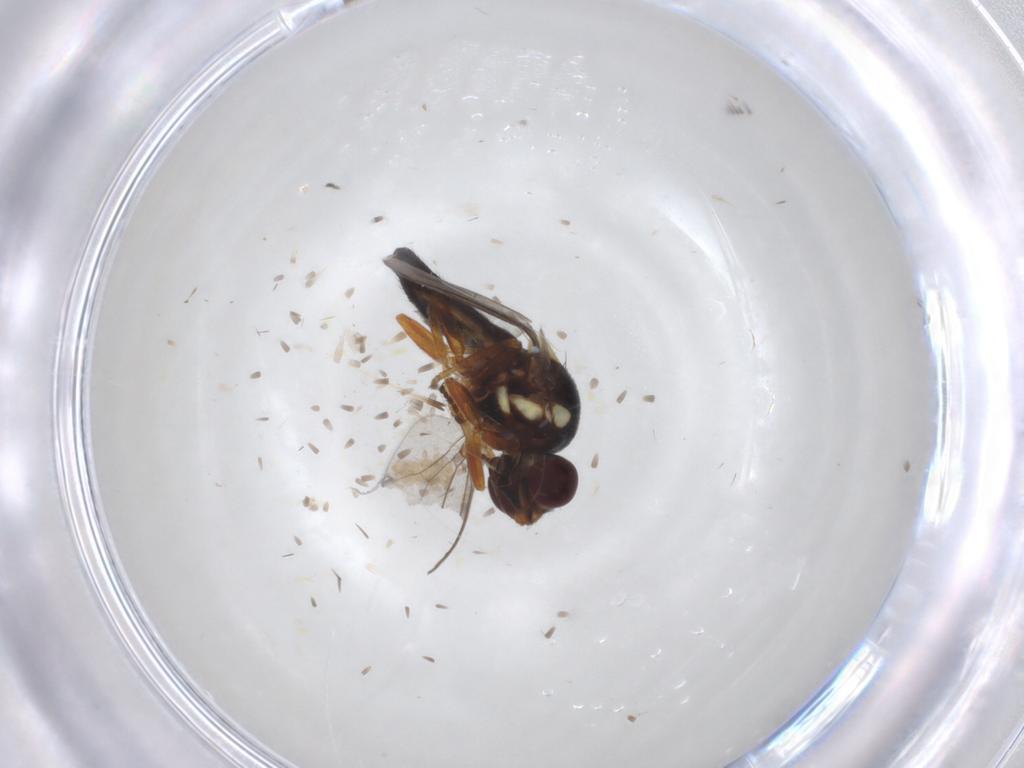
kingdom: Animalia
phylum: Arthropoda
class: Insecta
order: Diptera
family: Chloropidae
